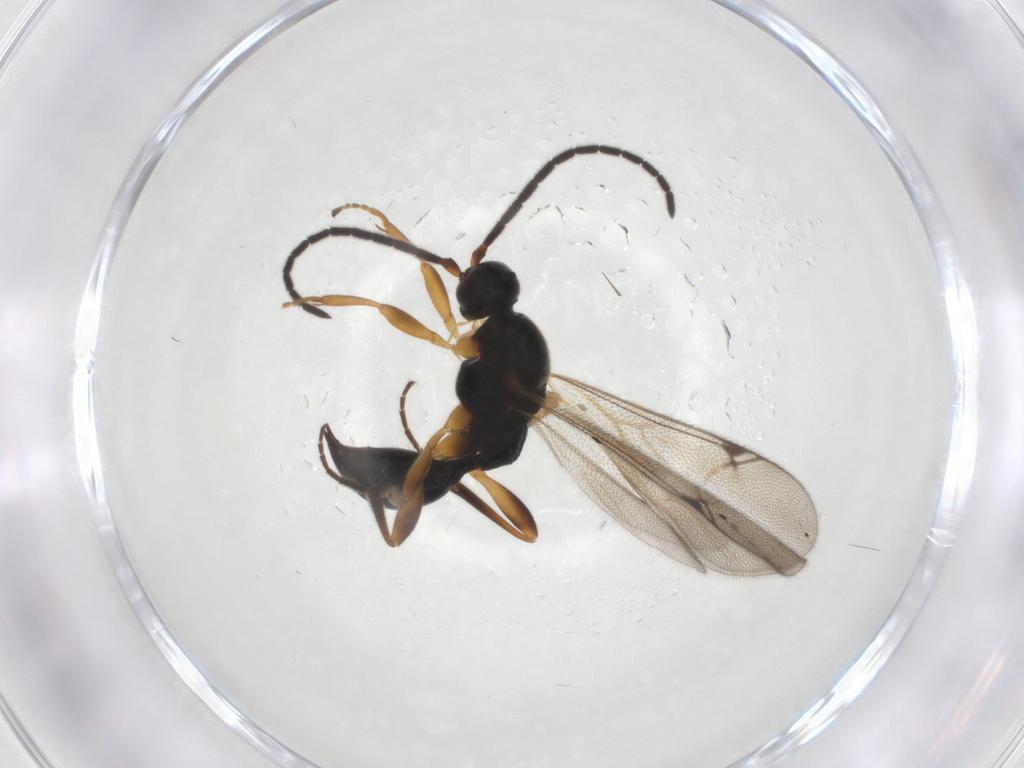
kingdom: Animalia
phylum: Arthropoda
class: Insecta
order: Hymenoptera
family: Proctotrupidae
